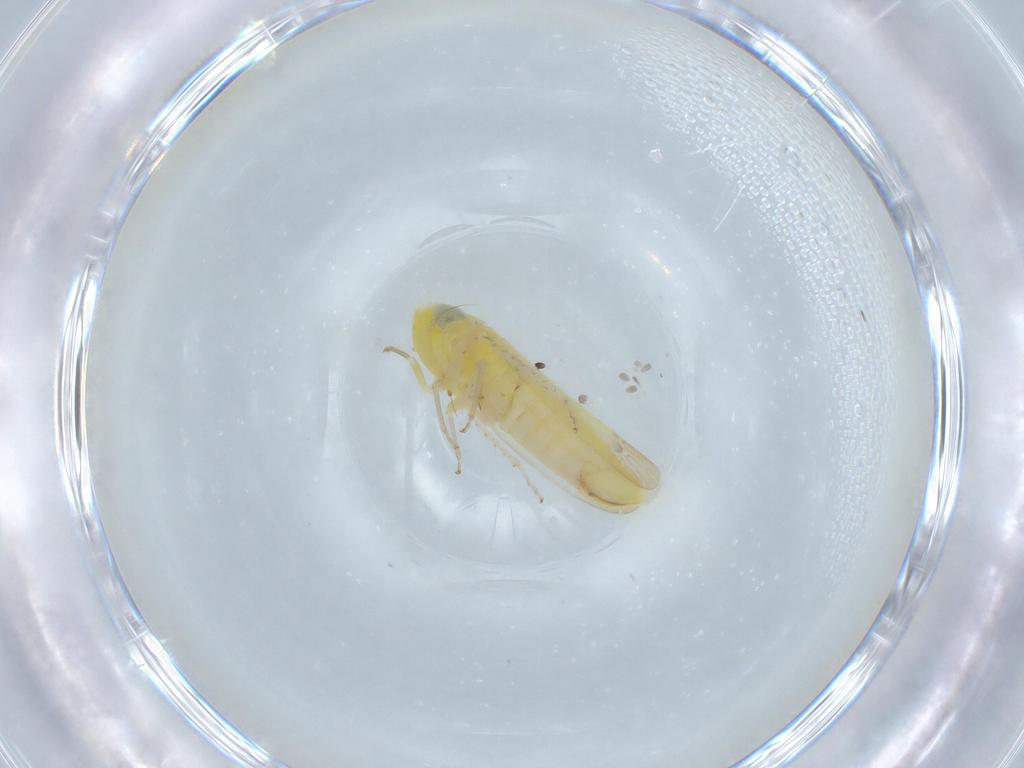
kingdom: Animalia
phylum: Arthropoda
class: Insecta
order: Hemiptera
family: Cicadellidae
